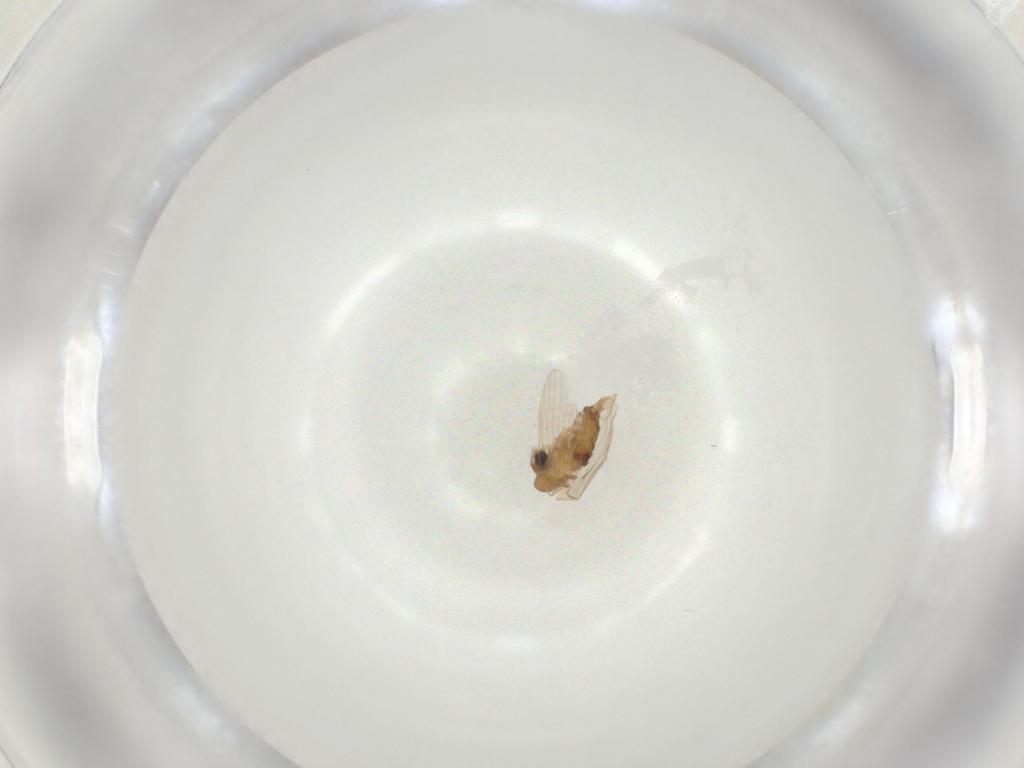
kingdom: Animalia
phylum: Arthropoda
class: Insecta
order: Diptera
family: Psychodidae
